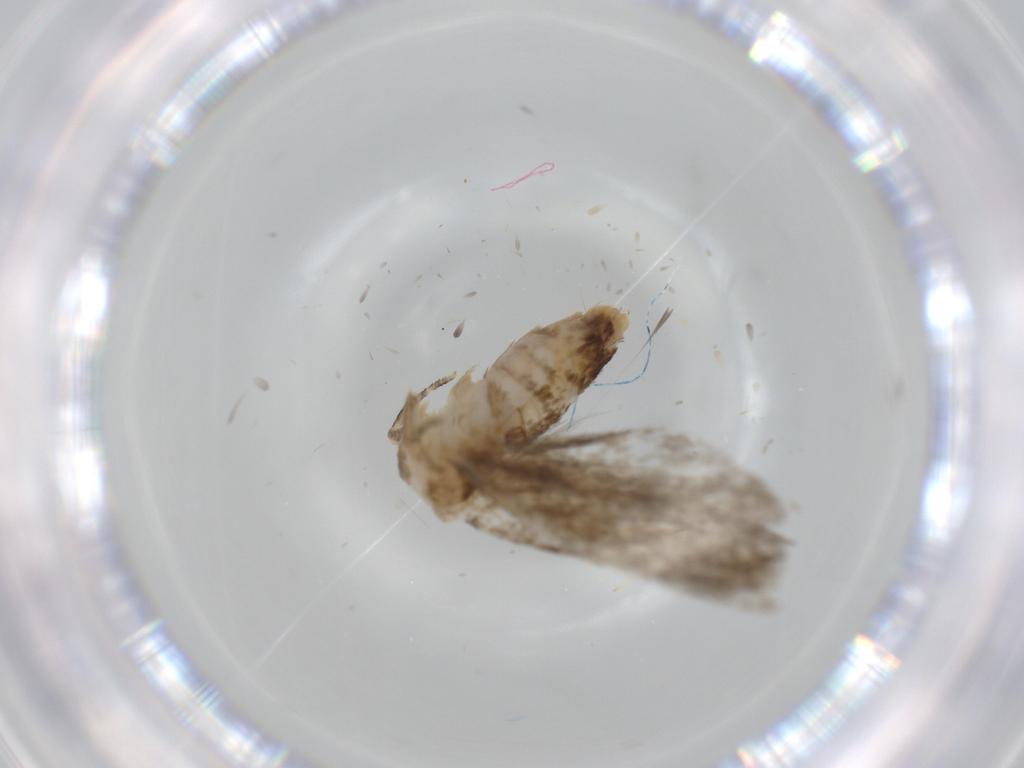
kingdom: Animalia
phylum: Arthropoda
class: Insecta
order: Lepidoptera
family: Tineidae
